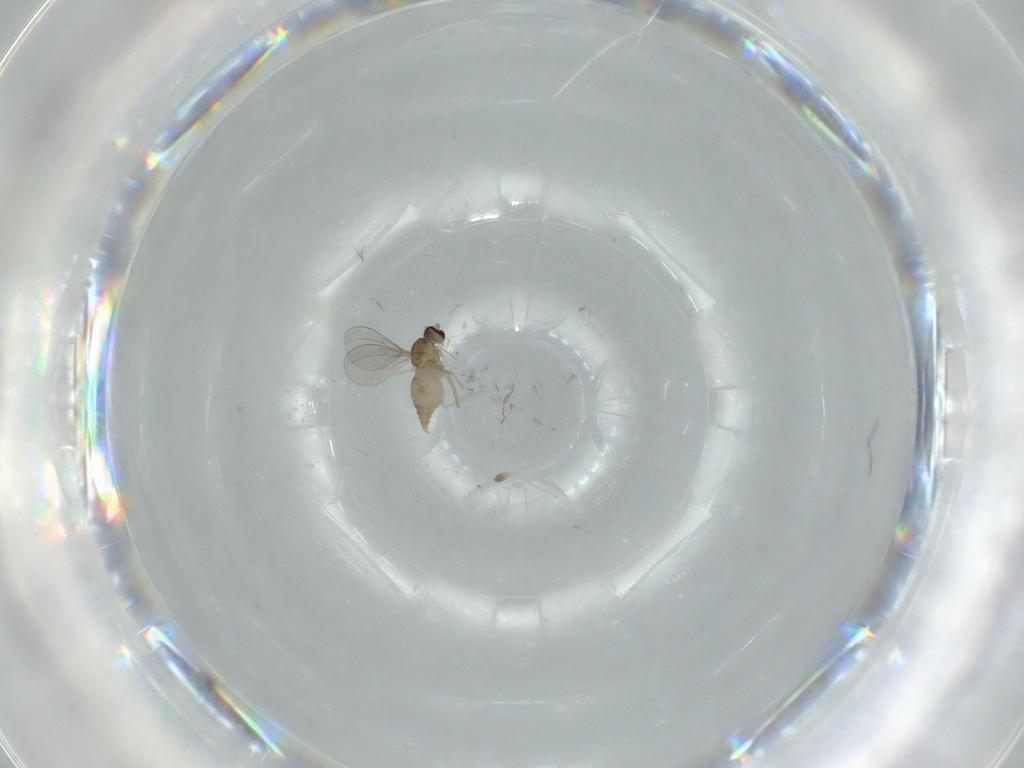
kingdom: Animalia
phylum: Arthropoda
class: Insecta
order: Diptera
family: Cecidomyiidae
